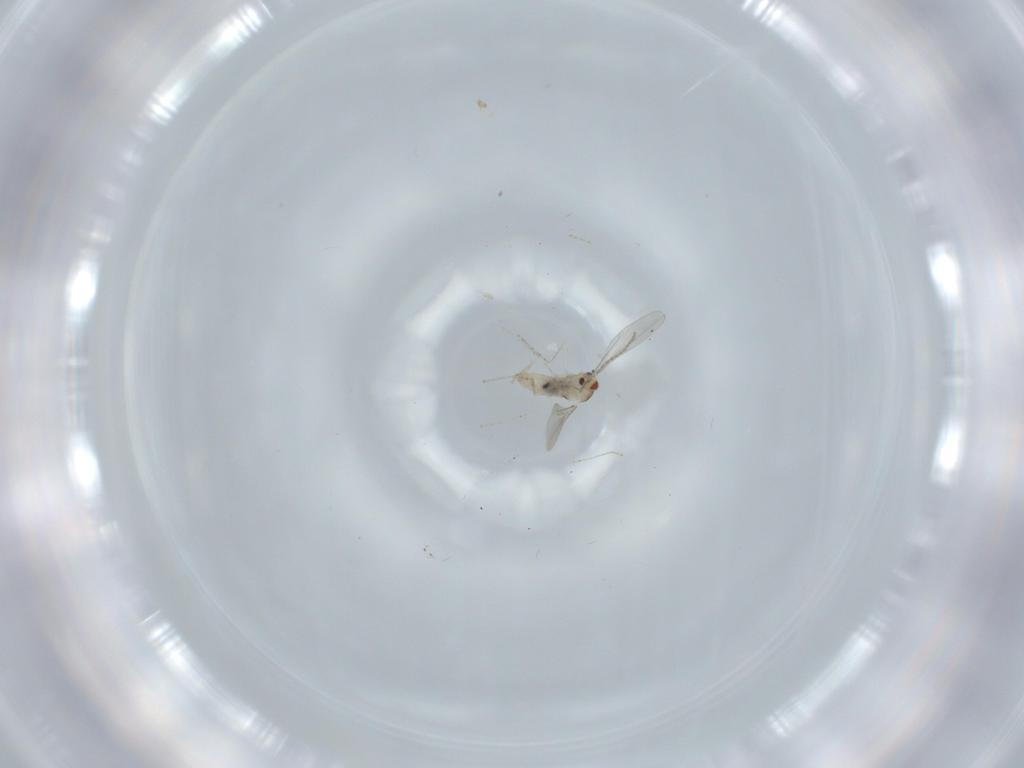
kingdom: Animalia
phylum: Arthropoda
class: Insecta
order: Diptera
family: Cecidomyiidae
